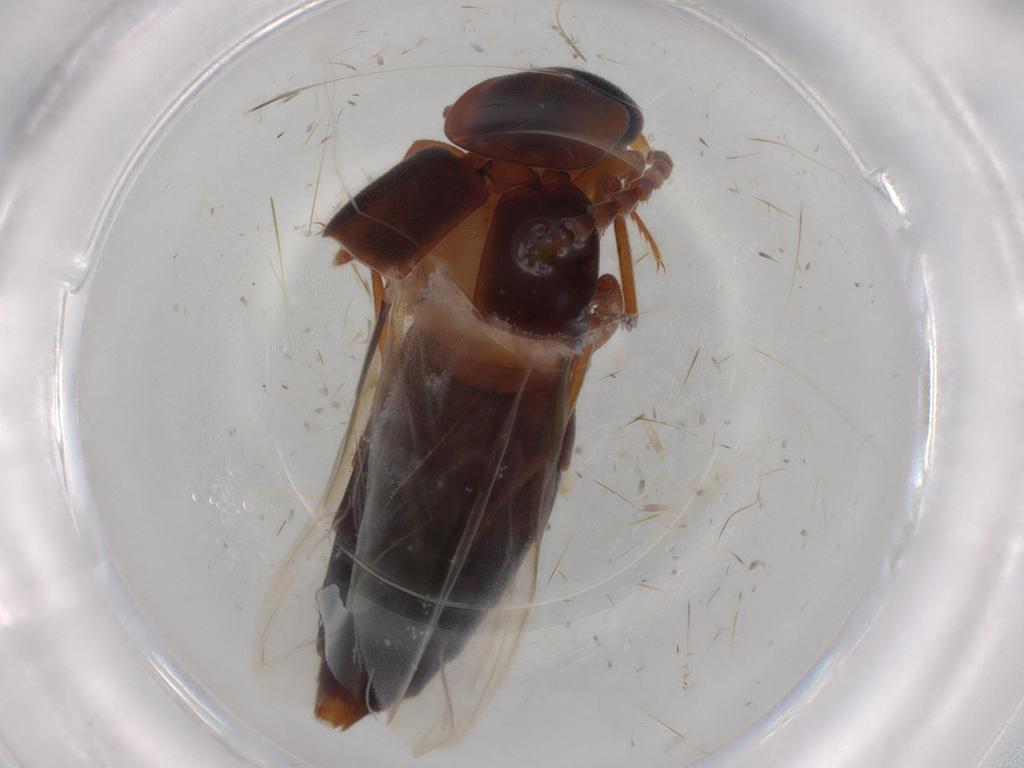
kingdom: Animalia
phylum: Arthropoda
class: Insecta
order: Coleoptera
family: Staphylinidae
